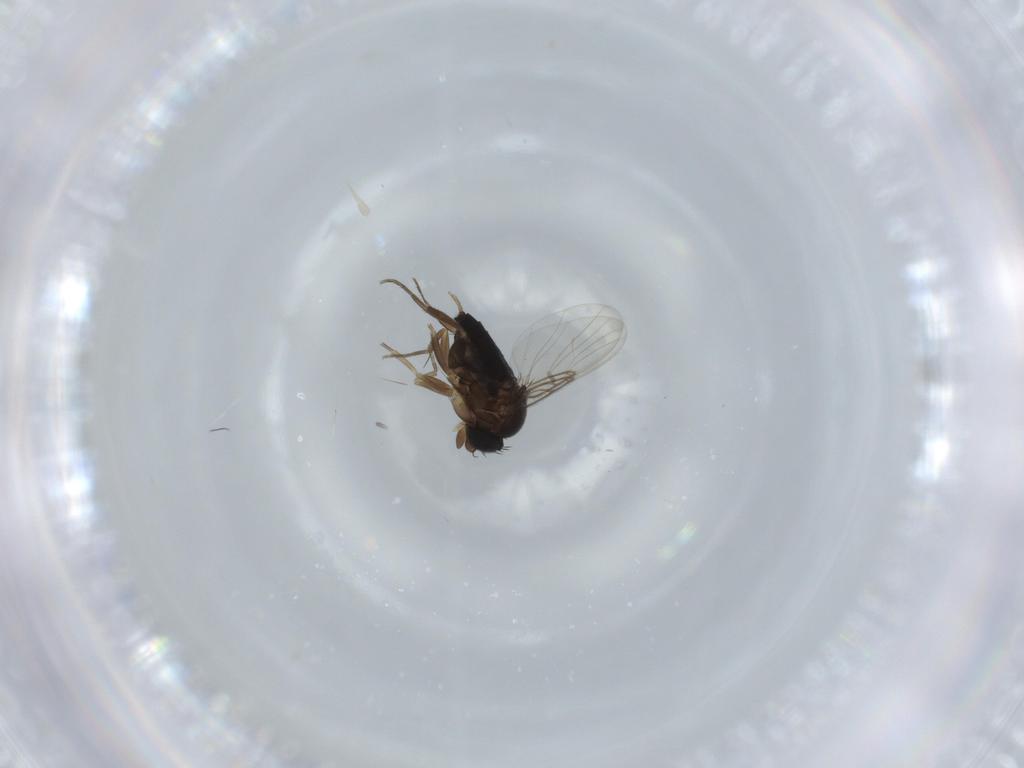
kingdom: Animalia
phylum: Arthropoda
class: Insecta
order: Diptera
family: Phoridae
